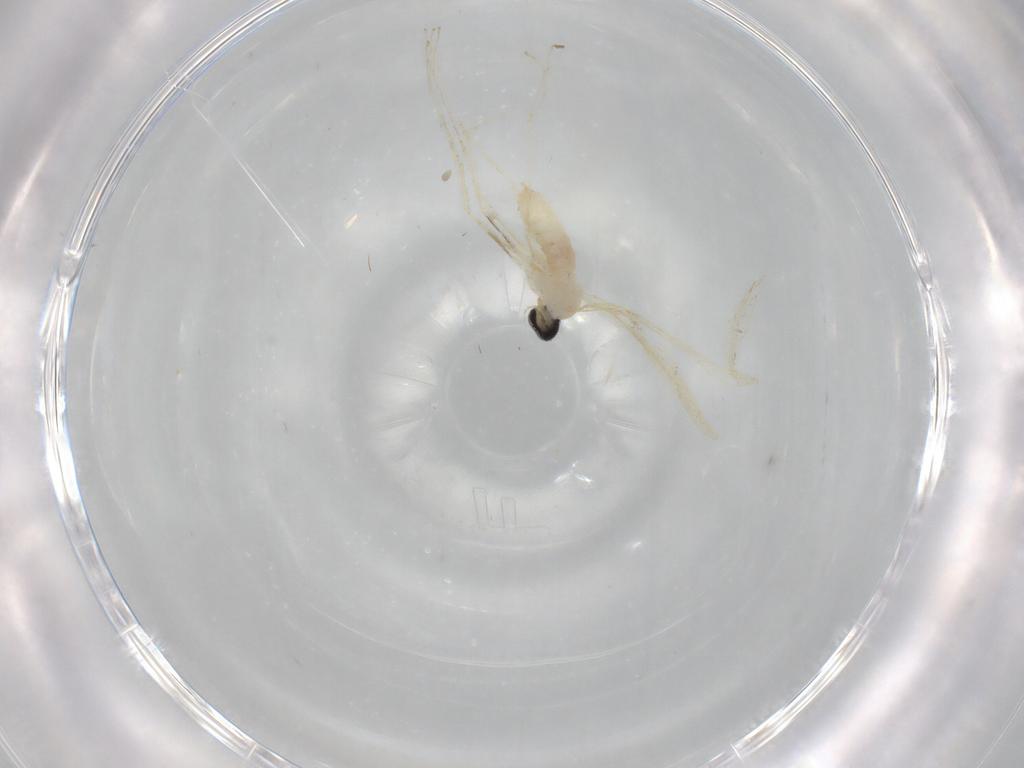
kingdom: Animalia
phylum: Arthropoda
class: Insecta
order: Diptera
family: Cecidomyiidae
